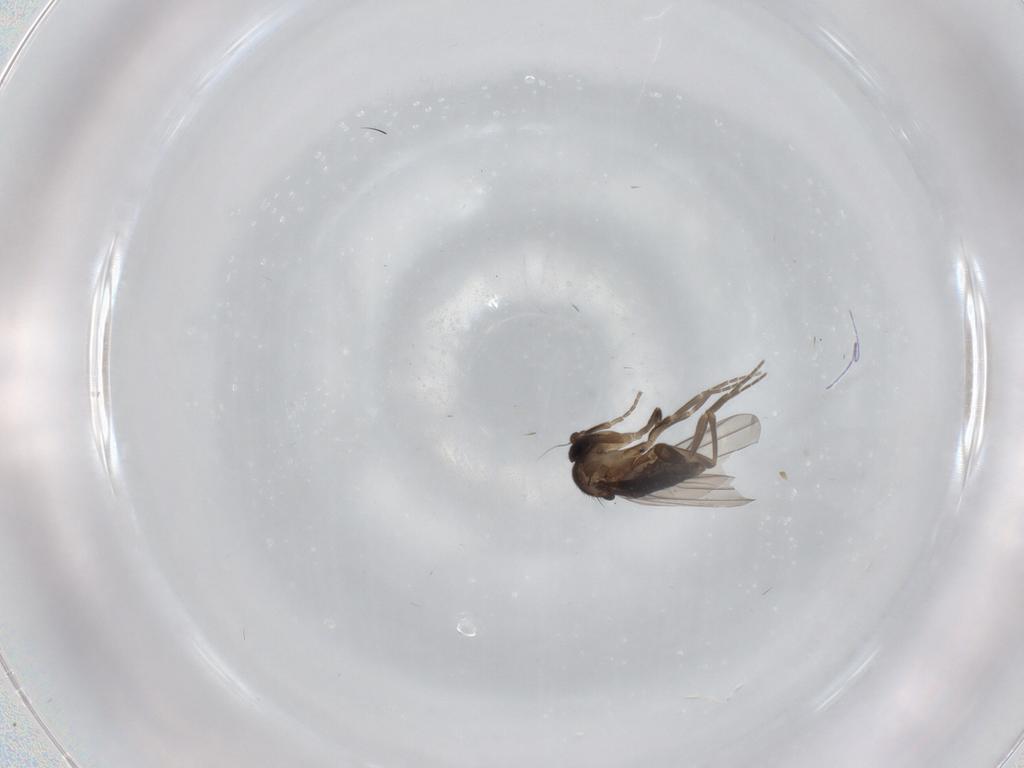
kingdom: Animalia
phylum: Arthropoda
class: Insecta
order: Diptera
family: Phoridae
